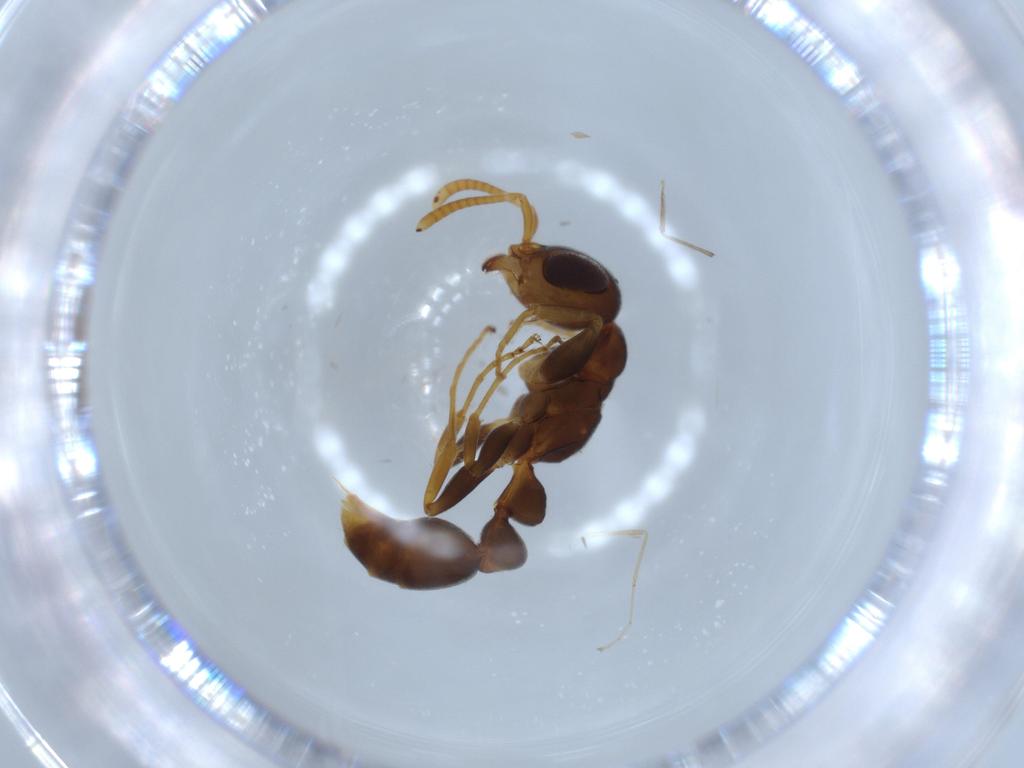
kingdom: Animalia
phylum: Arthropoda
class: Insecta
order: Hymenoptera
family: Formicidae
